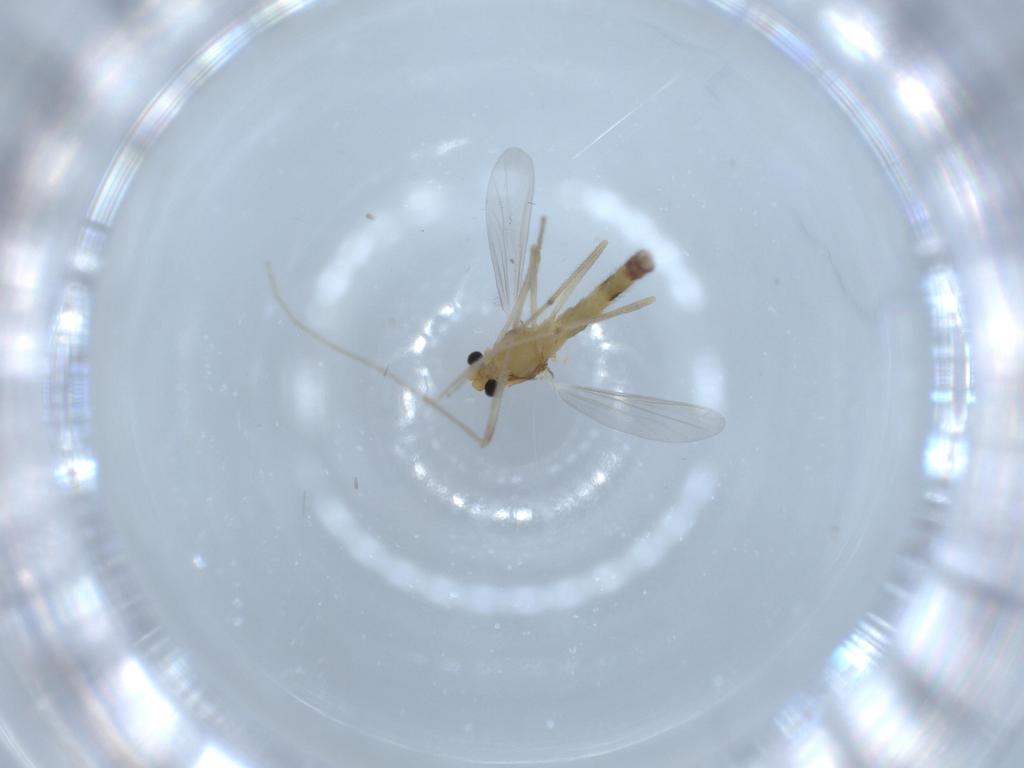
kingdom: Animalia
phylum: Arthropoda
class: Insecta
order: Diptera
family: Chironomidae
